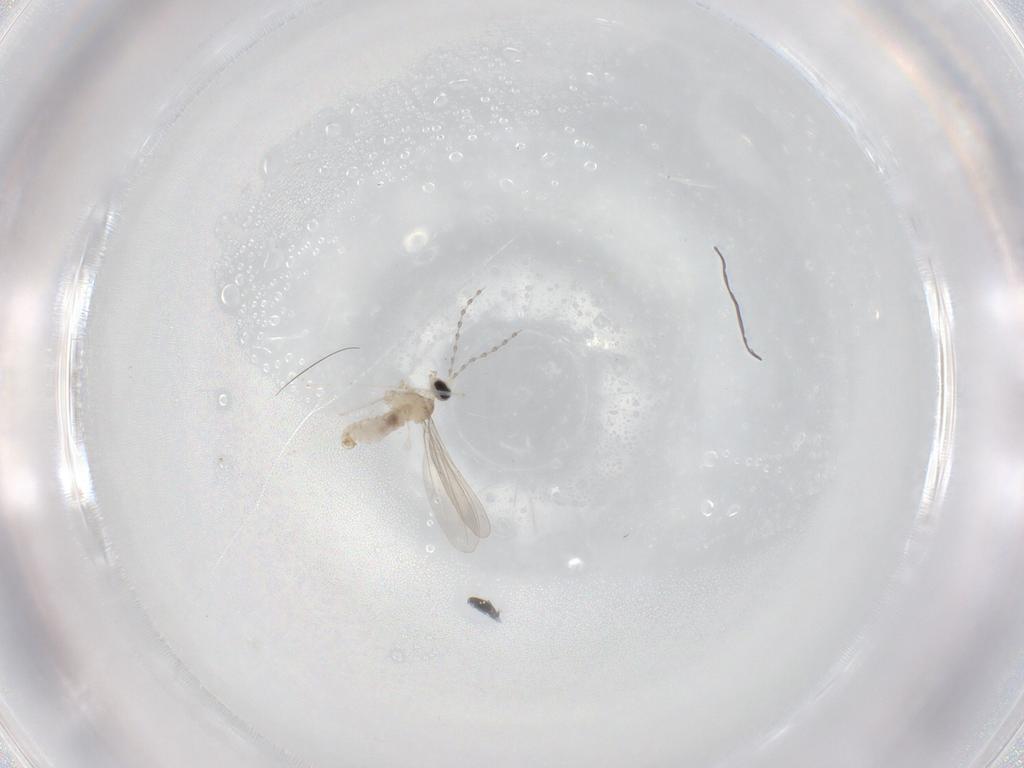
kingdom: Animalia
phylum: Arthropoda
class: Insecta
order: Diptera
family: Cecidomyiidae
